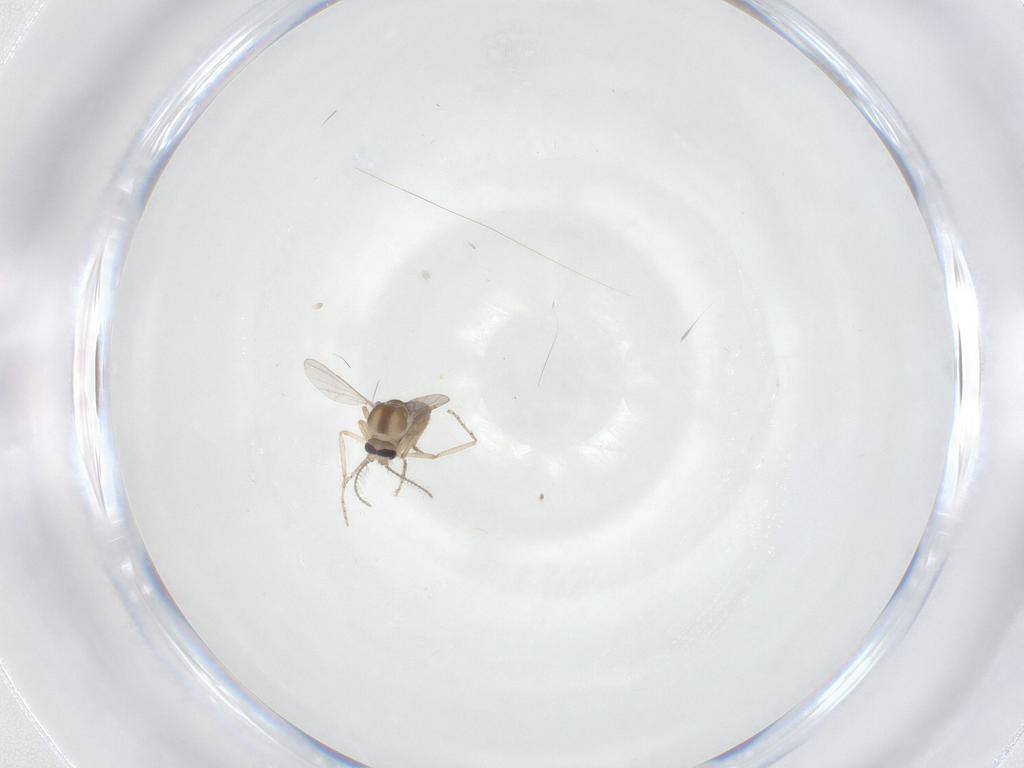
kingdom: Animalia
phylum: Arthropoda
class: Insecta
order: Diptera
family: Ceratopogonidae
